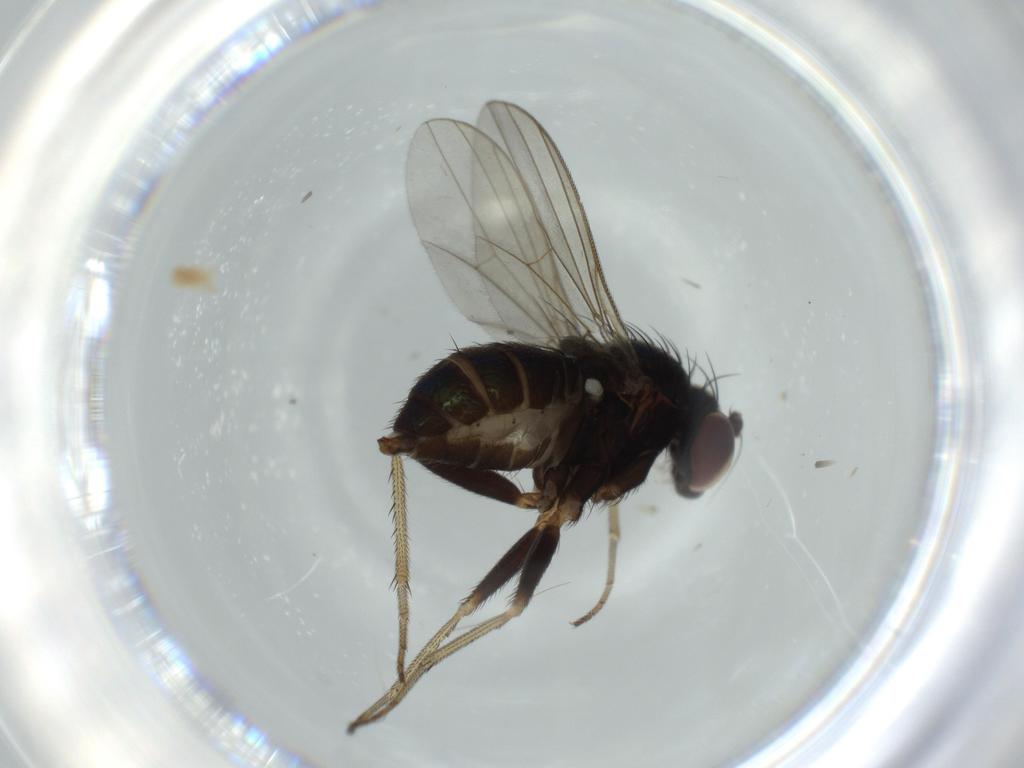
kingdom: Animalia
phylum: Arthropoda
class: Insecta
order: Diptera
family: Dolichopodidae
